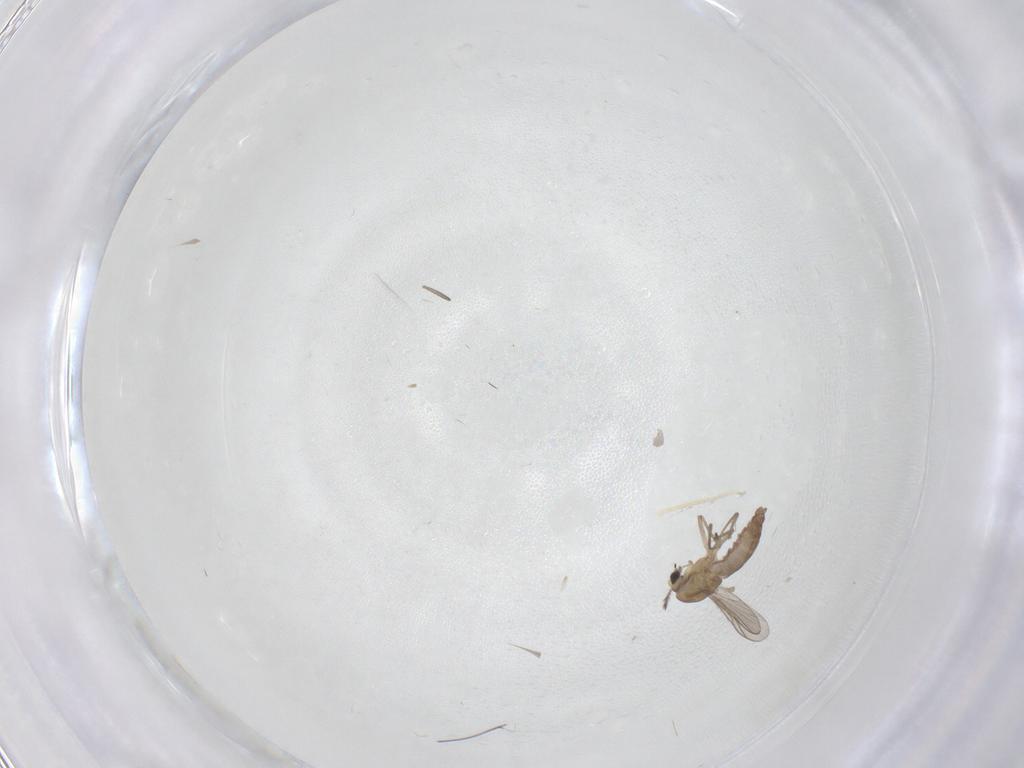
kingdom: Animalia
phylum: Arthropoda
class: Insecta
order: Diptera
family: Chironomidae
